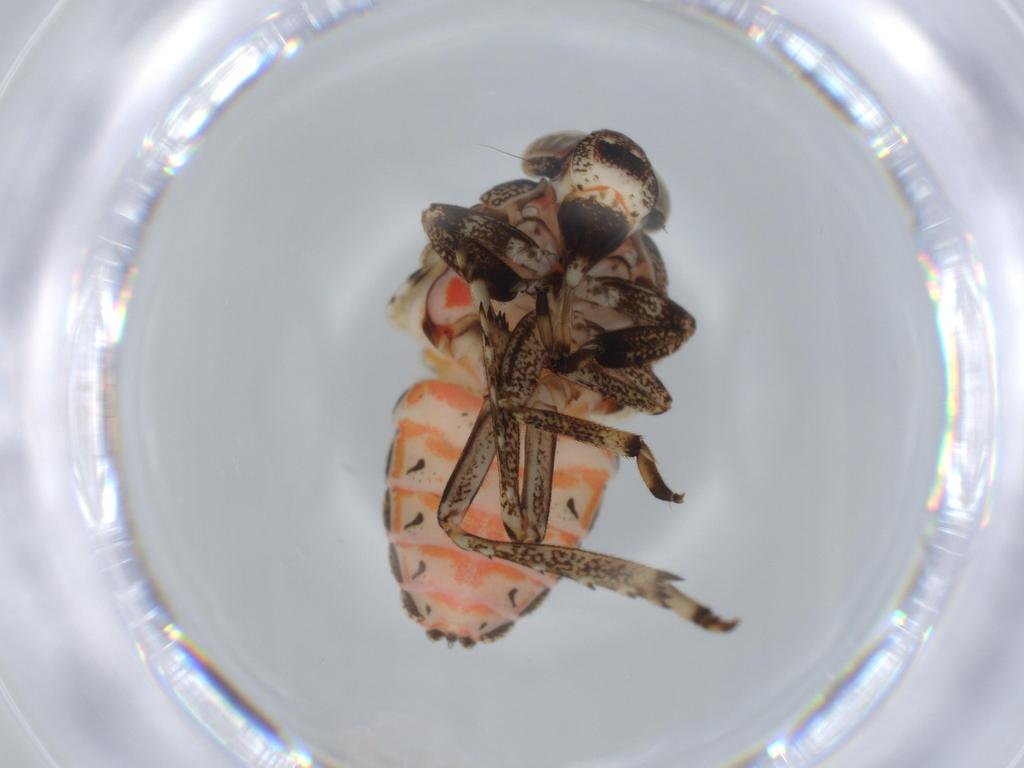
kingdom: Animalia
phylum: Arthropoda
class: Insecta
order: Hemiptera
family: Issidae
